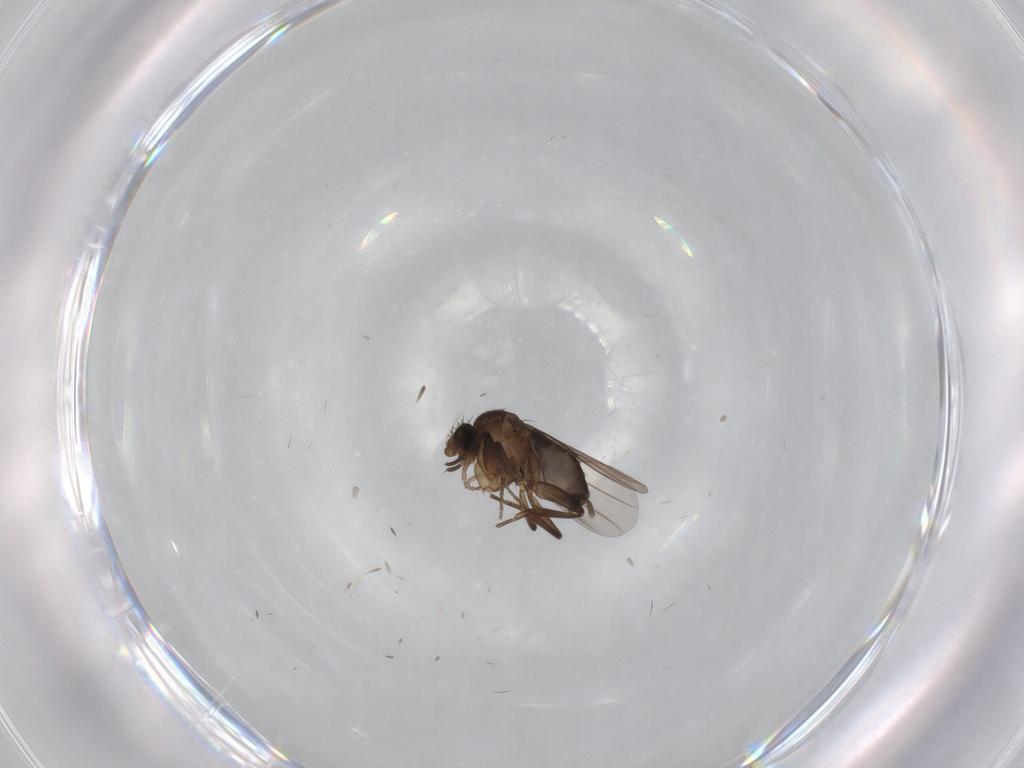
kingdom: Animalia
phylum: Arthropoda
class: Insecta
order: Diptera
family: Phoridae
